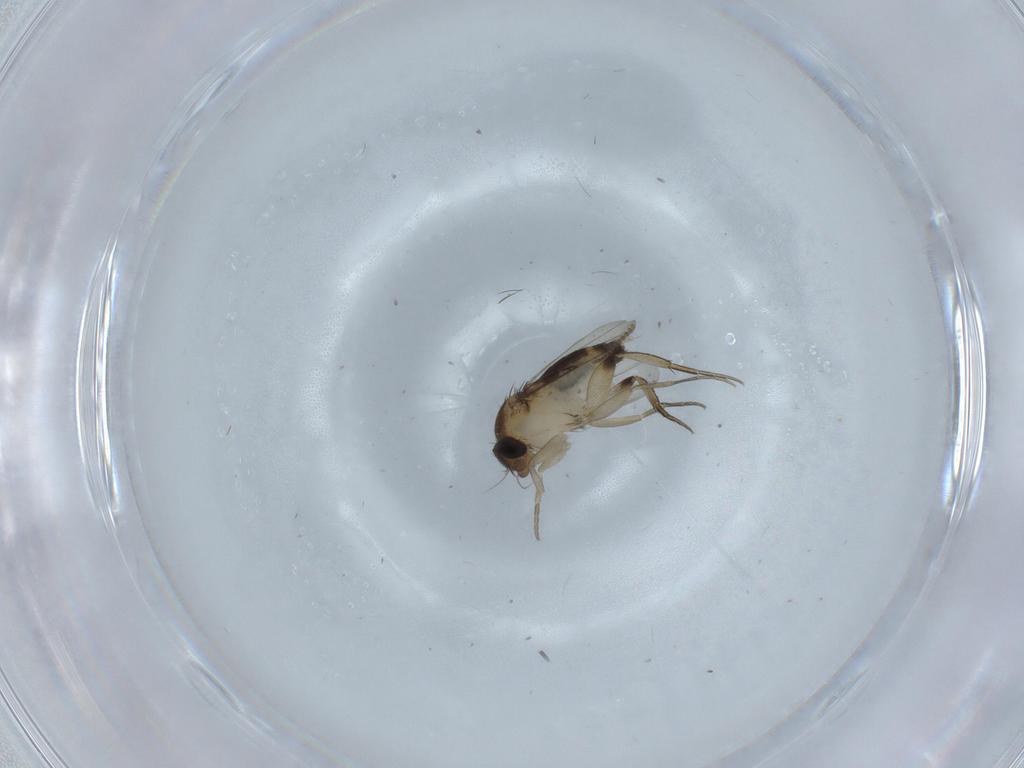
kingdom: Animalia
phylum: Arthropoda
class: Insecta
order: Diptera
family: Ceratopogonidae
